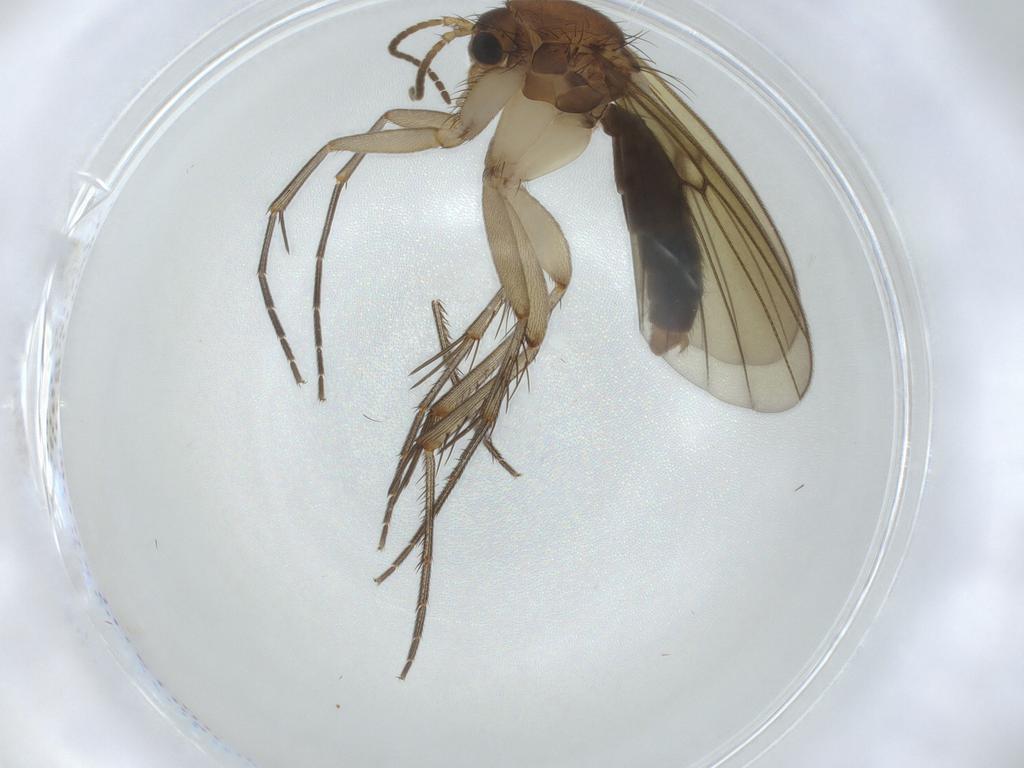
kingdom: Animalia
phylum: Arthropoda
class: Insecta
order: Diptera
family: Mycetophilidae
